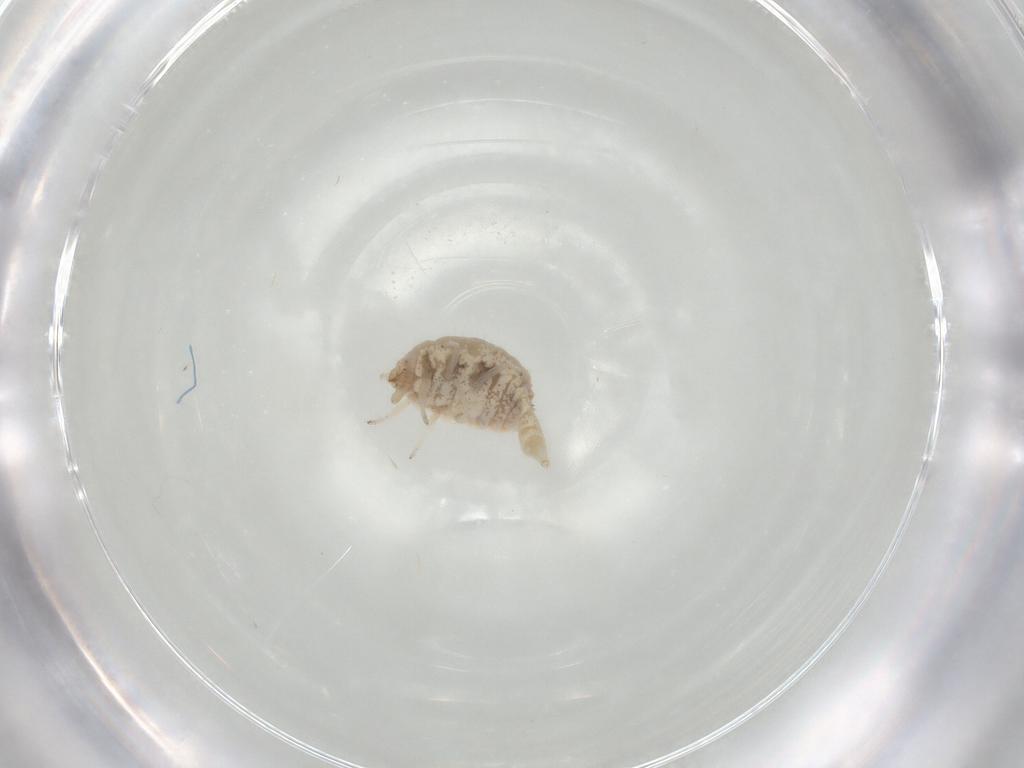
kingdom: Animalia
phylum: Arthropoda
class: Insecta
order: Neuroptera
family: Coniopterygidae
